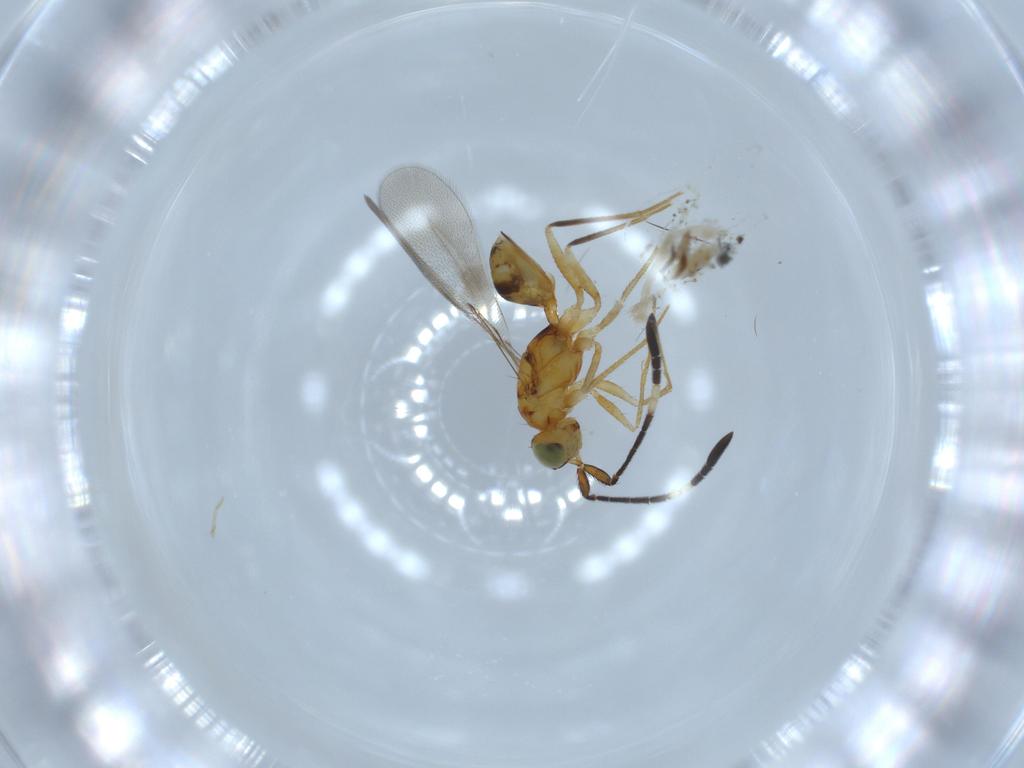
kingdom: Animalia
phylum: Arthropoda
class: Insecta
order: Hymenoptera
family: Mymaridae
